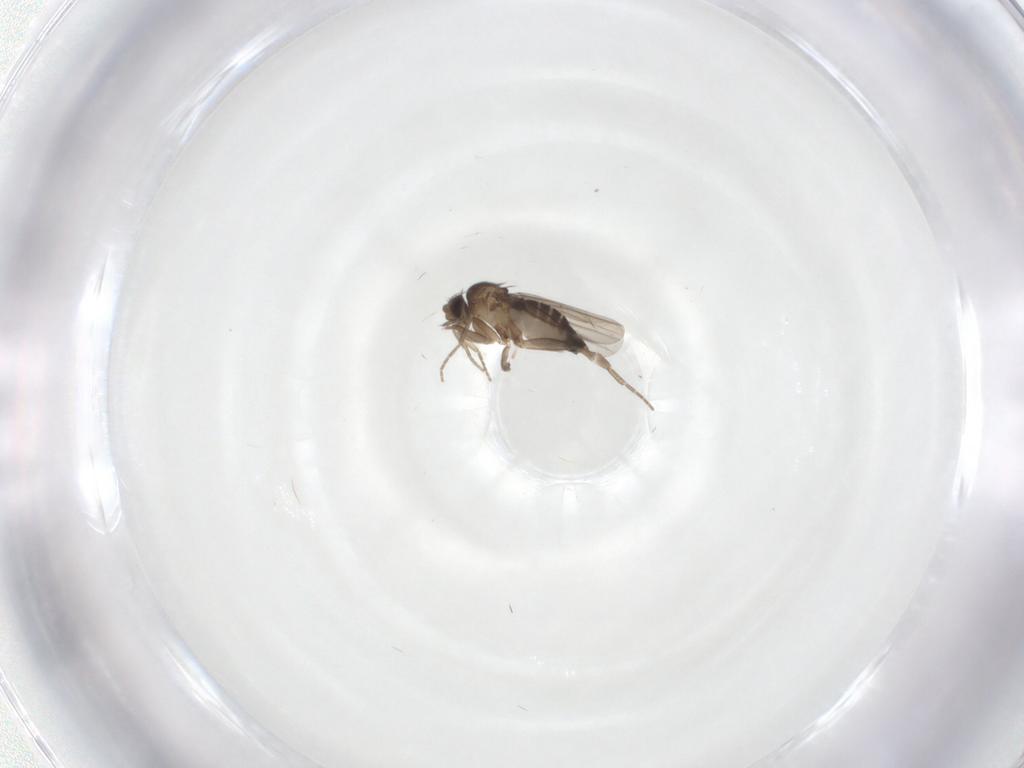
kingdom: Animalia
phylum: Arthropoda
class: Insecta
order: Diptera
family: Phoridae
